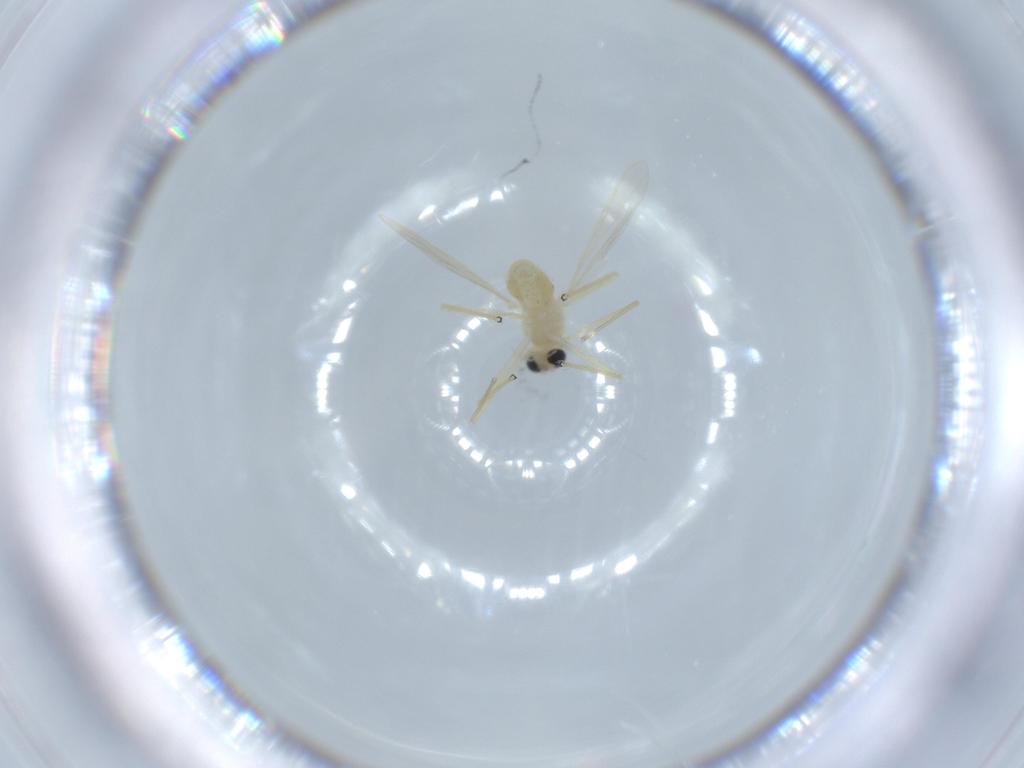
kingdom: Animalia
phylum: Arthropoda
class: Insecta
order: Diptera
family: Chironomidae
